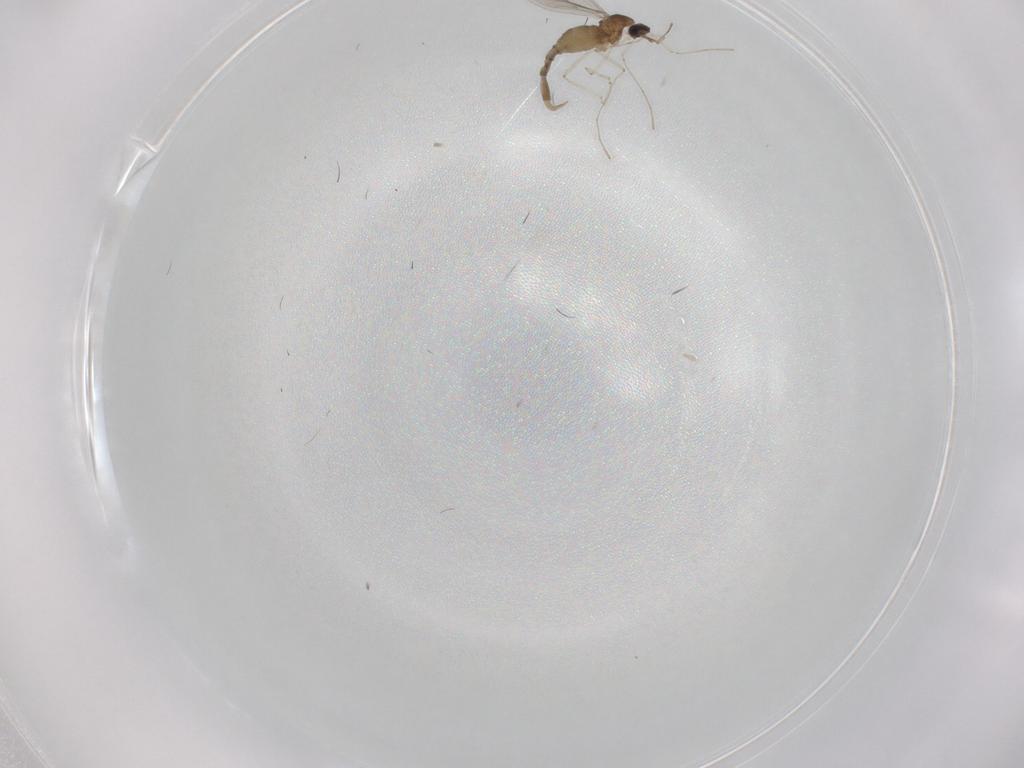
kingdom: Animalia
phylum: Arthropoda
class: Insecta
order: Diptera
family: Cecidomyiidae
